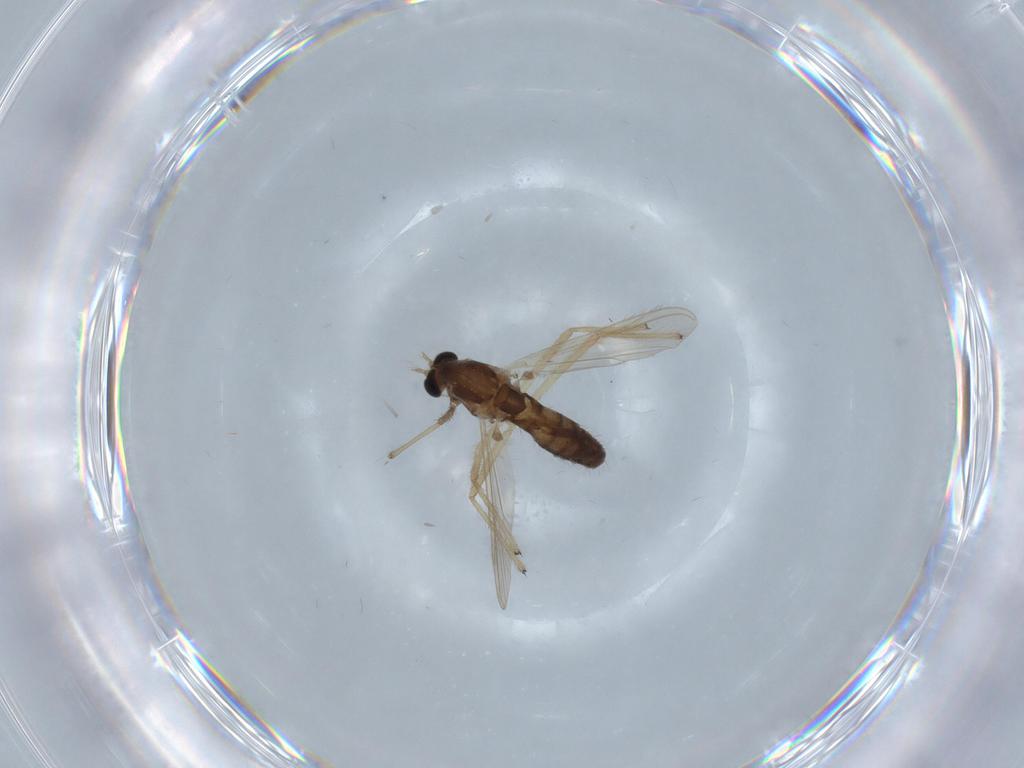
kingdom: Animalia
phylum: Arthropoda
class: Insecta
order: Diptera
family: Chironomidae
